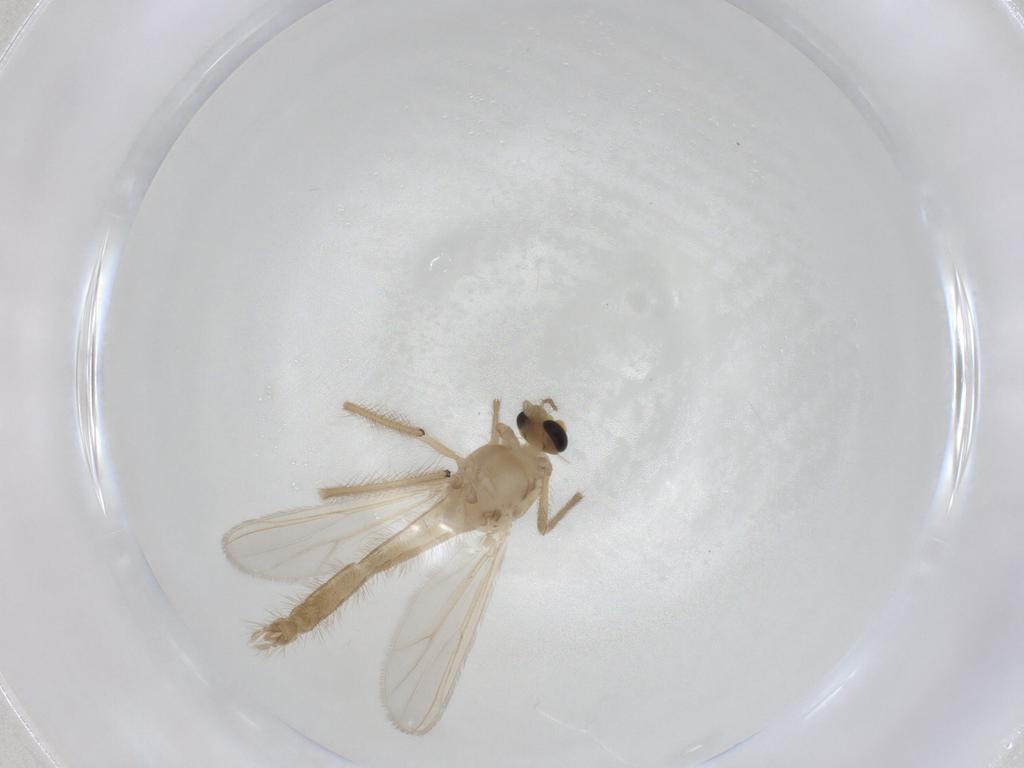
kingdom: Animalia
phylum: Arthropoda
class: Insecta
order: Diptera
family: Chironomidae
